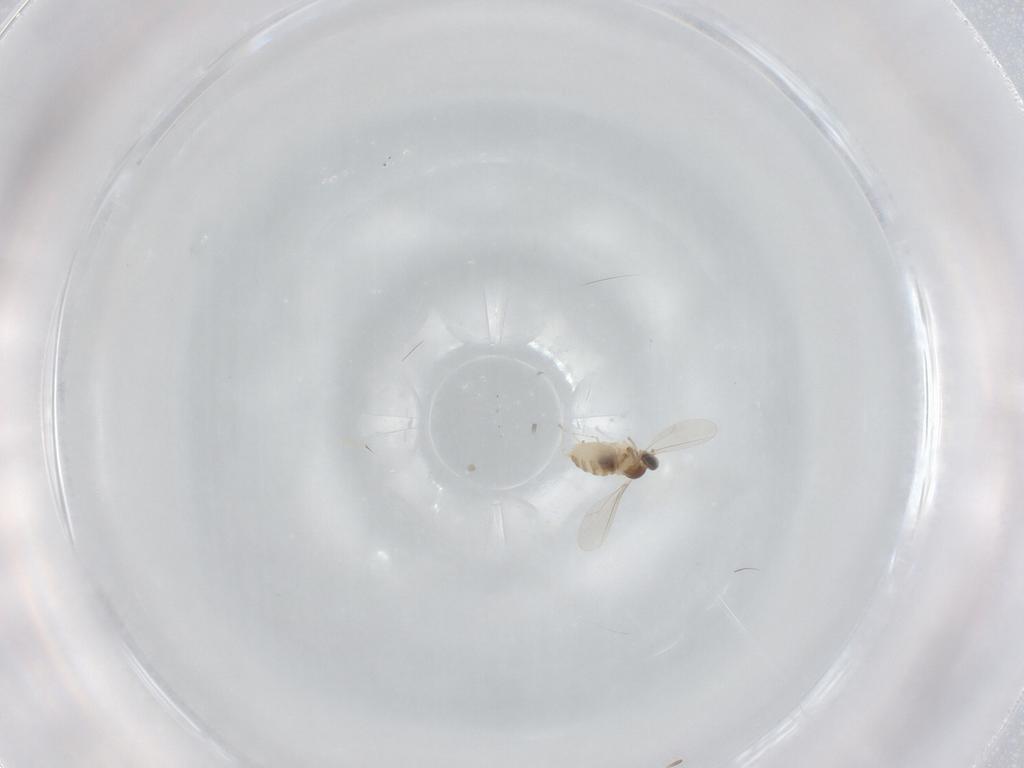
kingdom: Animalia
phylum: Arthropoda
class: Insecta
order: Diptera
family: Cecidomyiidae
